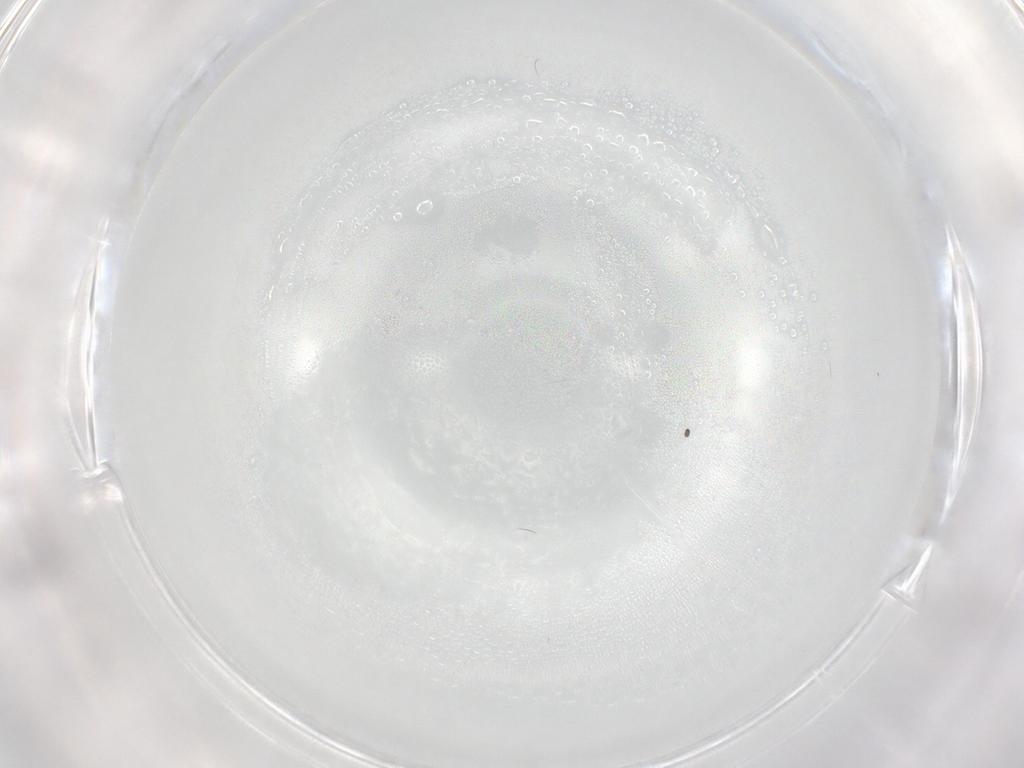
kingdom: Animalia
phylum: Arthropoda
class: Insecta
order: Diptera
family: Sciaridae
